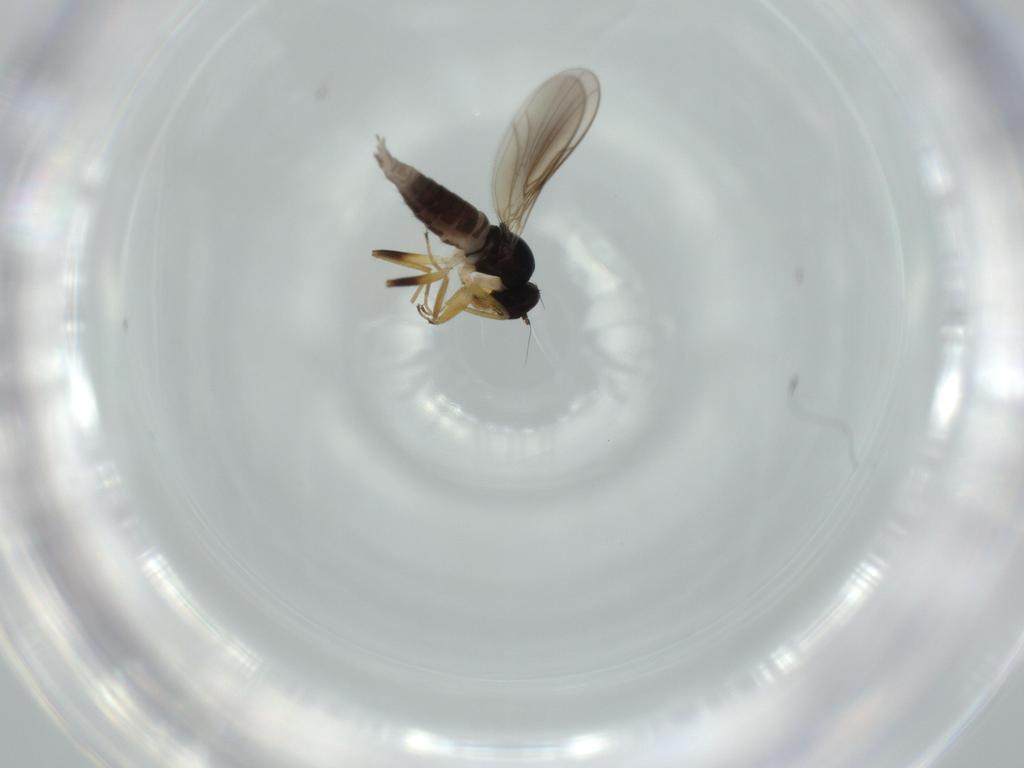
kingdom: Animalia
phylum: Arthropoda
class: Insecta
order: Diptera
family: Hybotidae
